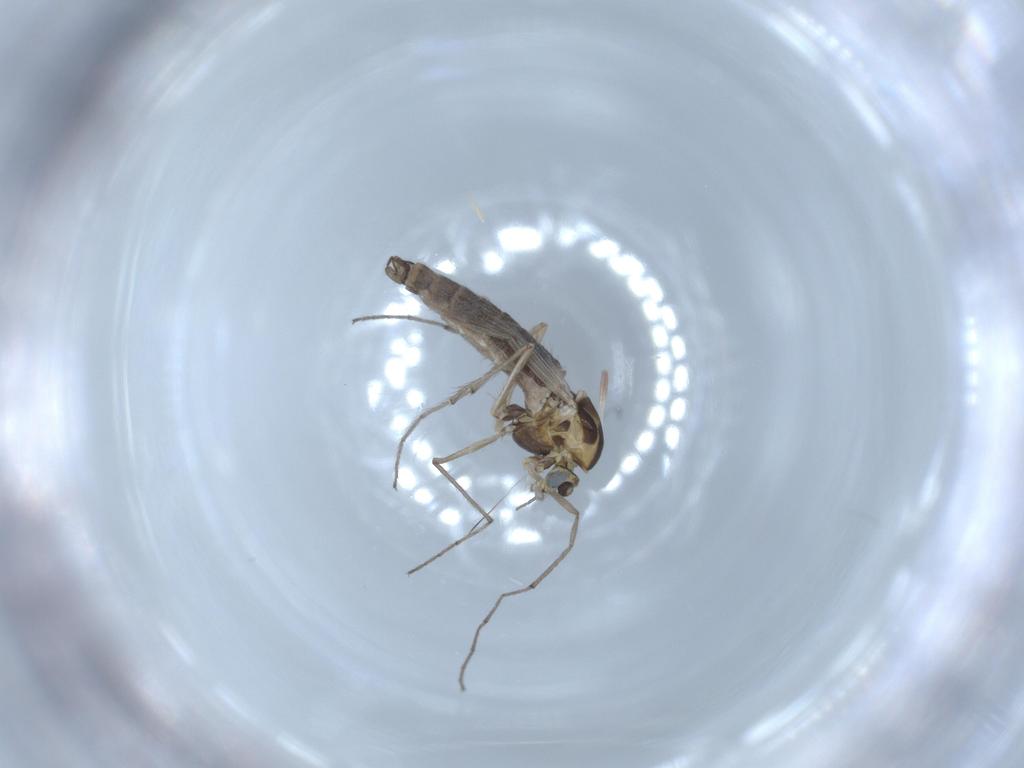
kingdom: Animalia
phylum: Arthropoda
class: Insecta
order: Diptera
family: Chironomidae
